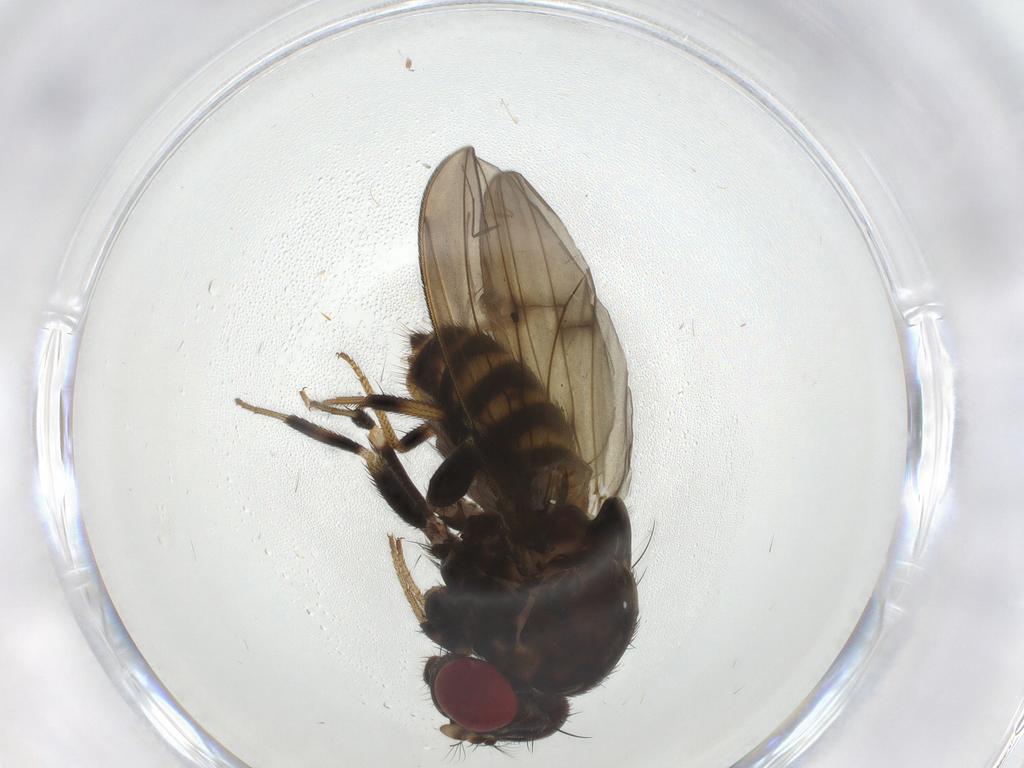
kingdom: Animalia
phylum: Arthropoda
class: Insecta
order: Diptera
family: Drosophilidae
